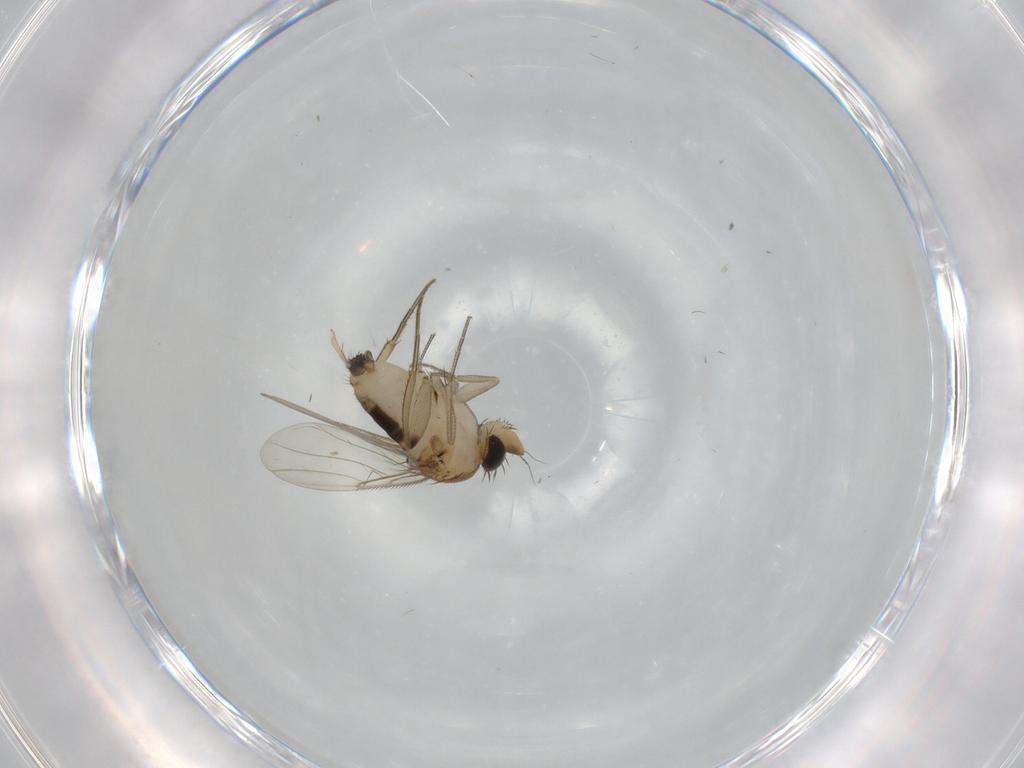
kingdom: Animalia
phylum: Arthropoda
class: Insecta
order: Diptera
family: Phoridae
